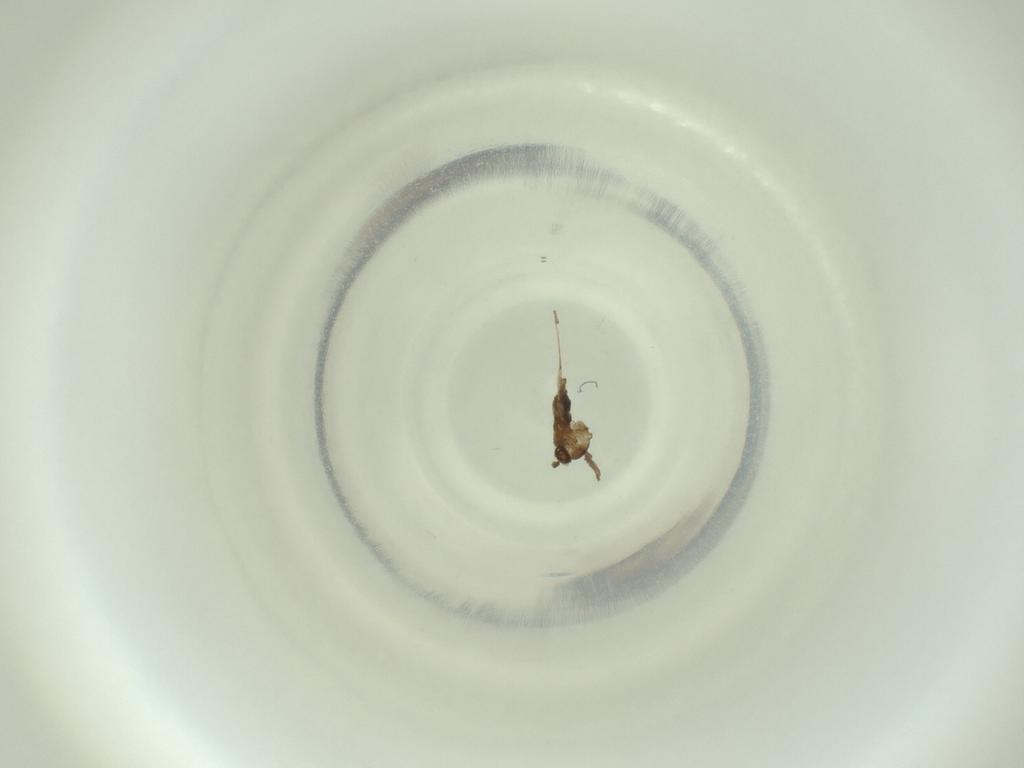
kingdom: Animalia
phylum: Arthropoda
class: Insecta
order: Diptera
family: Cecidomyiidae
